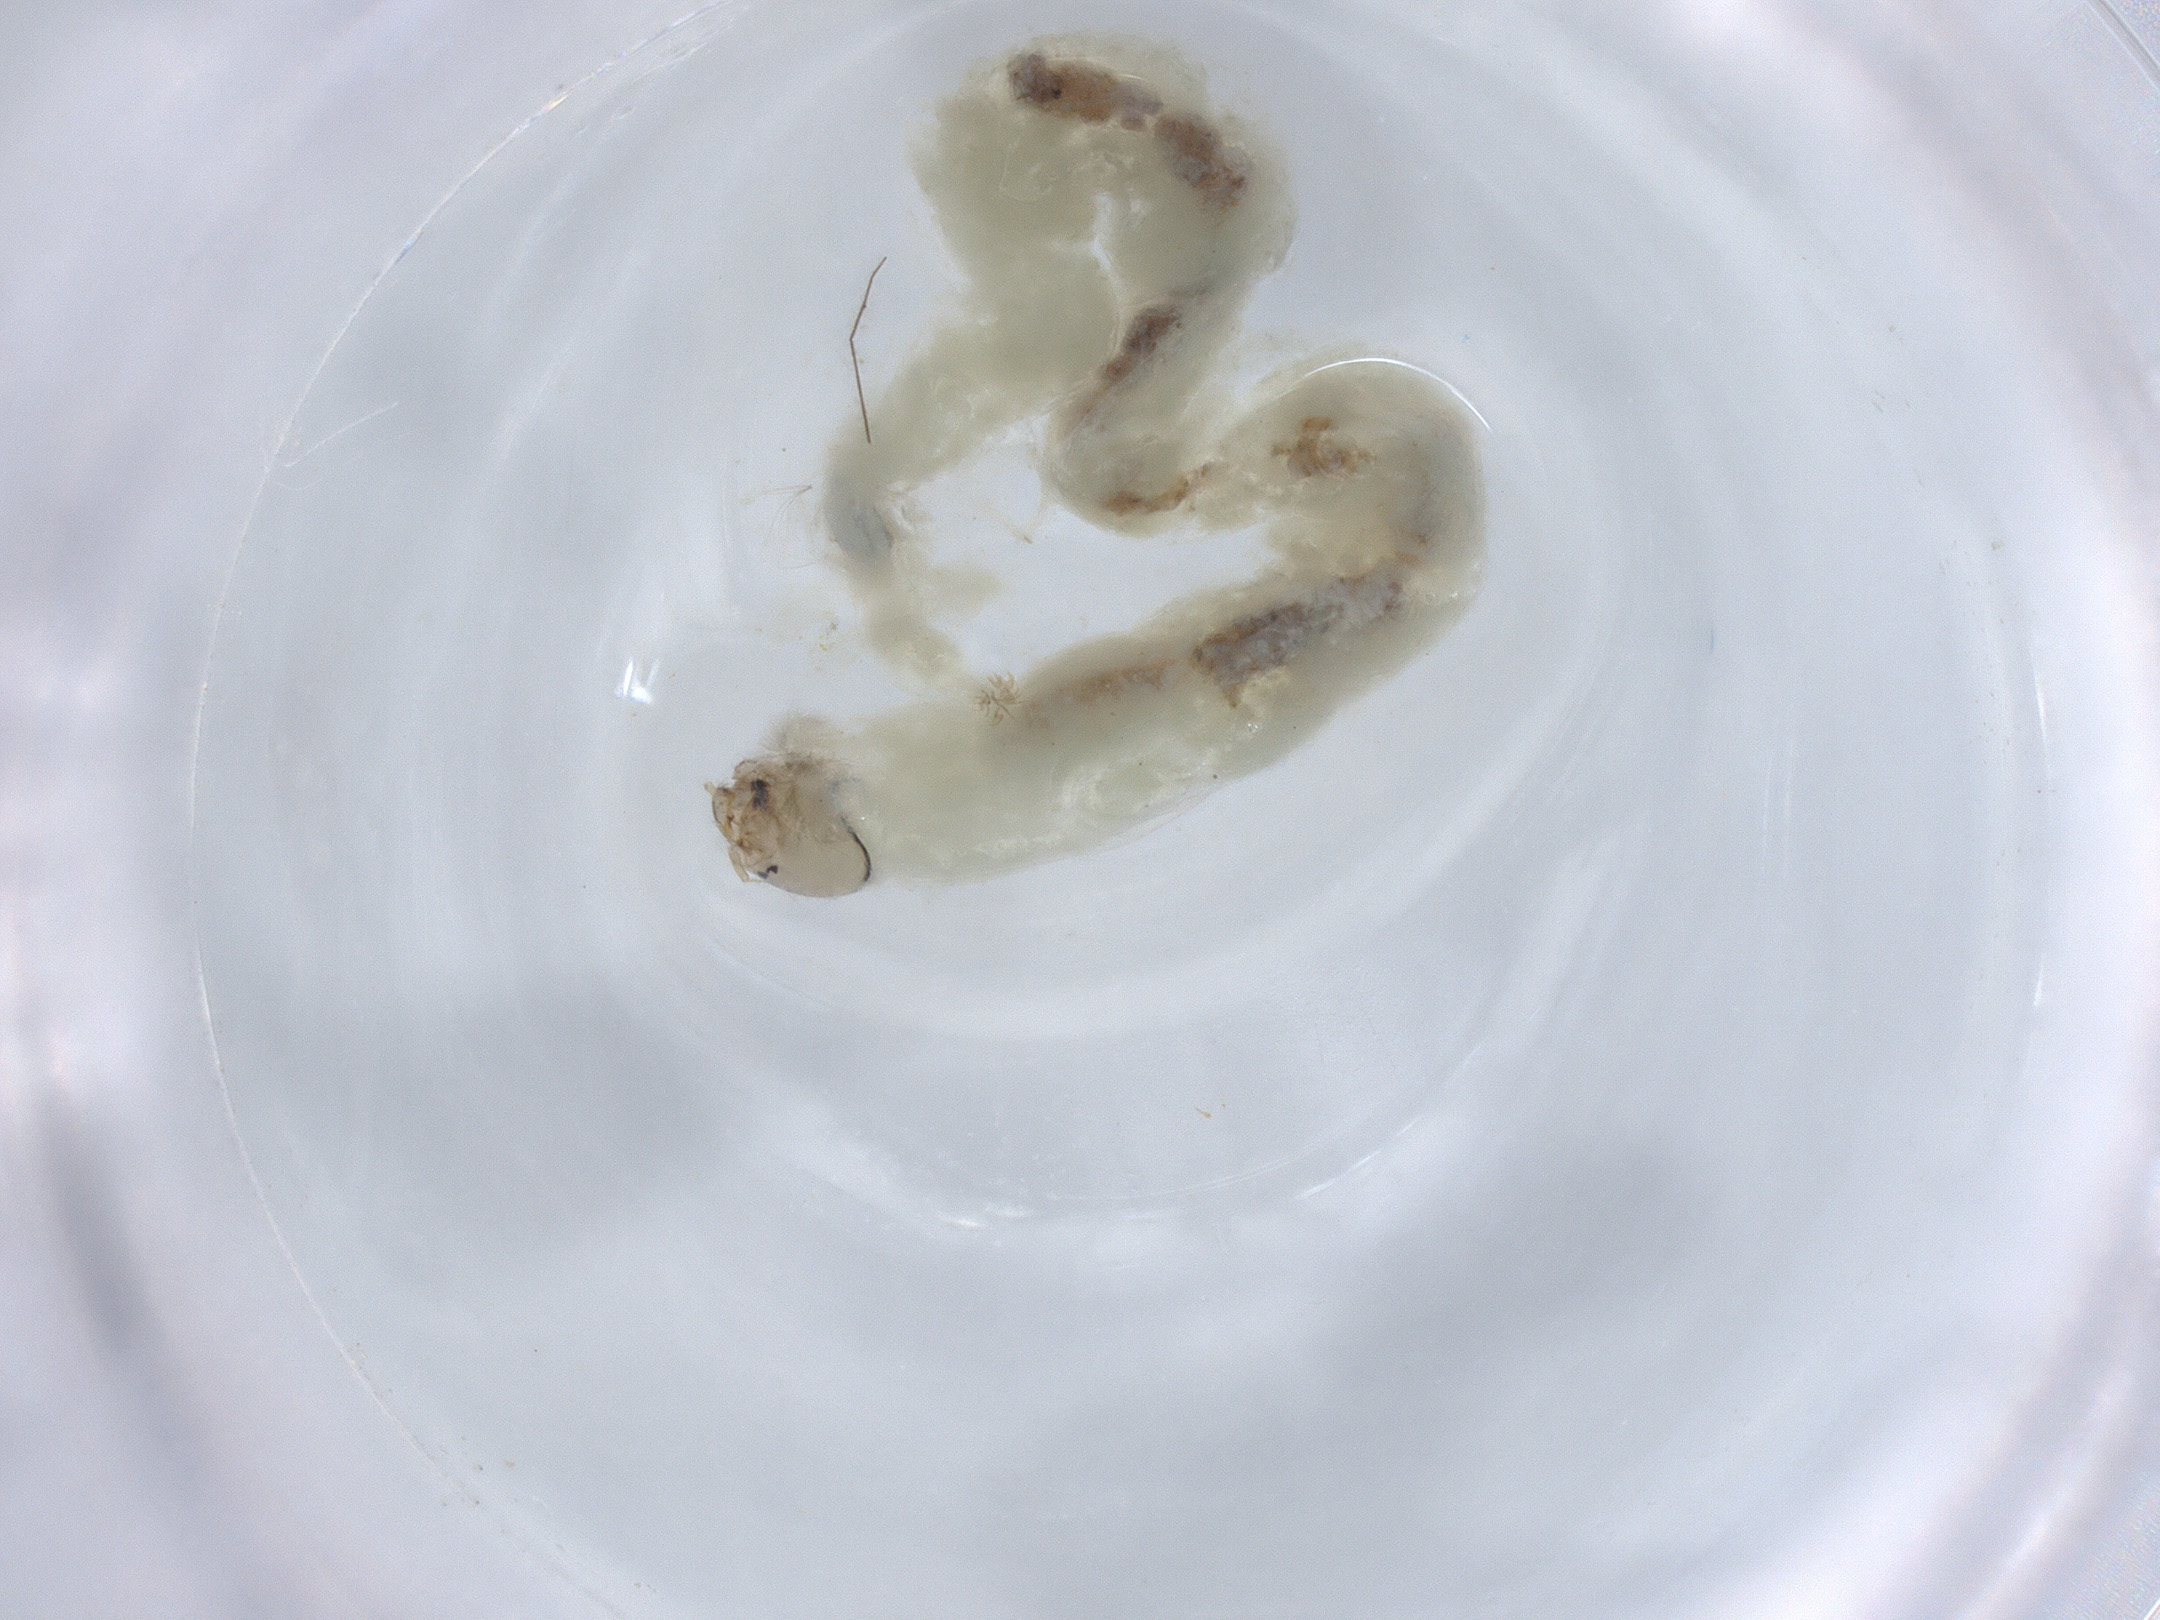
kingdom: Animalia
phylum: Arthropoda
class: Insecta
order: Diptera
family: Chironomidae
